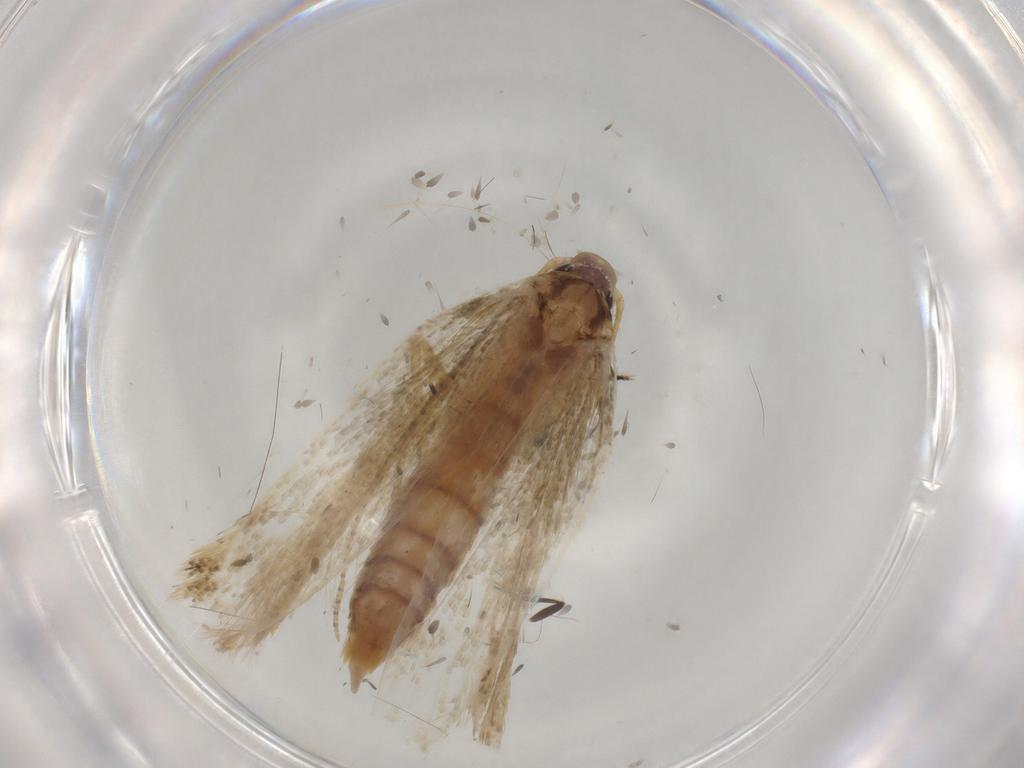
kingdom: Animalia
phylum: Arthropoda
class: Insecta
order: Lepidoptera
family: Crambidae
